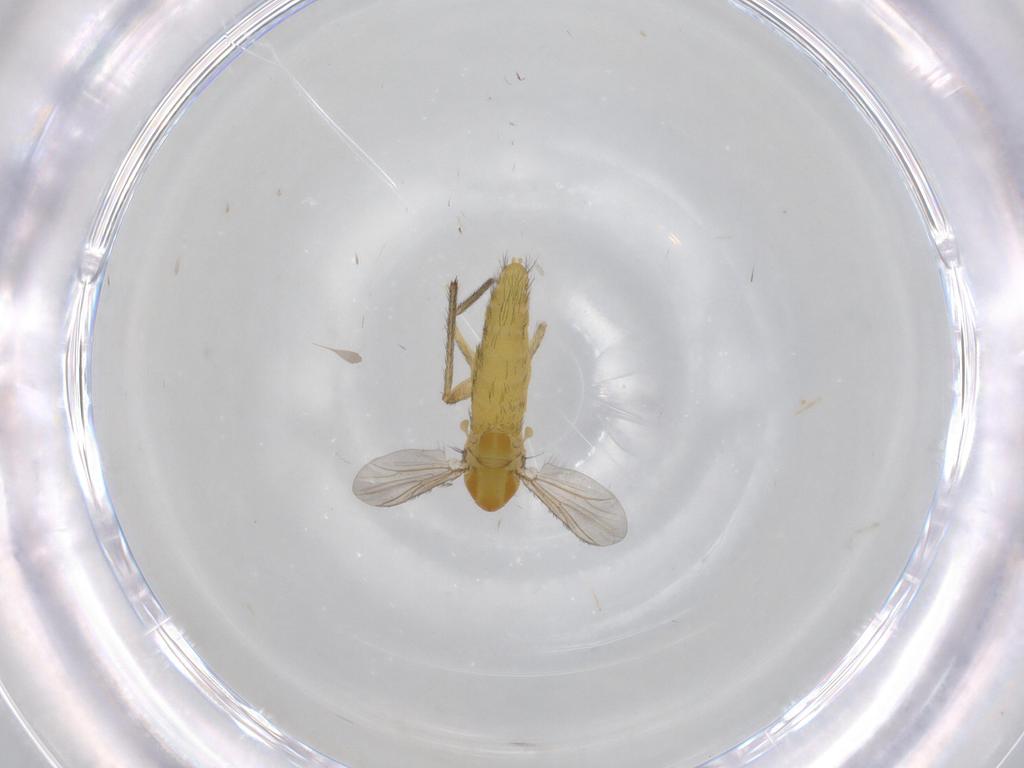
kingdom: Animalia
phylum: Arthropoda
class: Insecta
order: Diptera
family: Chironomidae
